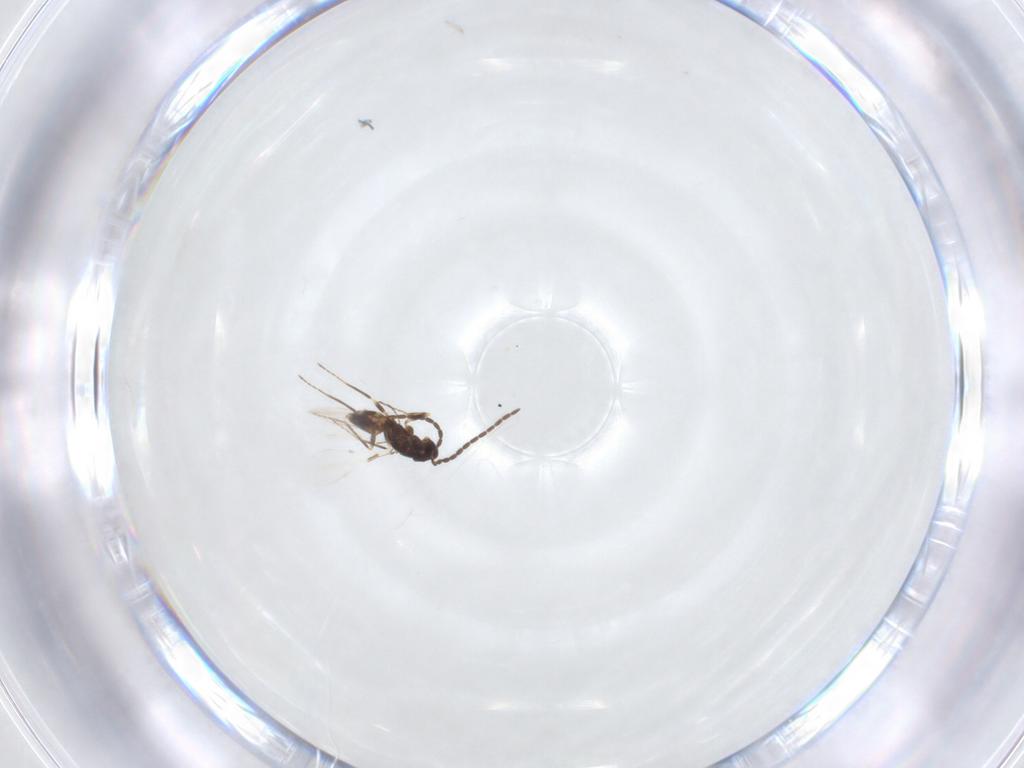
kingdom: Animalia
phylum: Arthropoda
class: Insecta
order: Hymenoptera
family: Mymaridae
